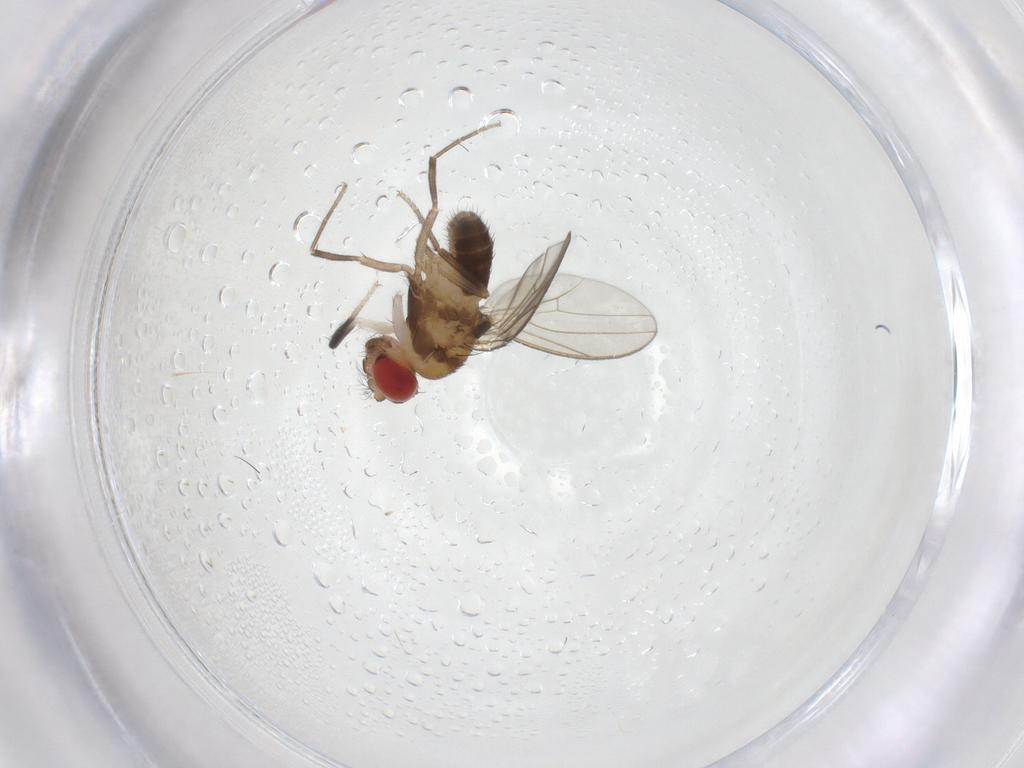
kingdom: Animalia
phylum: Arthropoda
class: Insecta
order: Diptera
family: Drosophilidae
